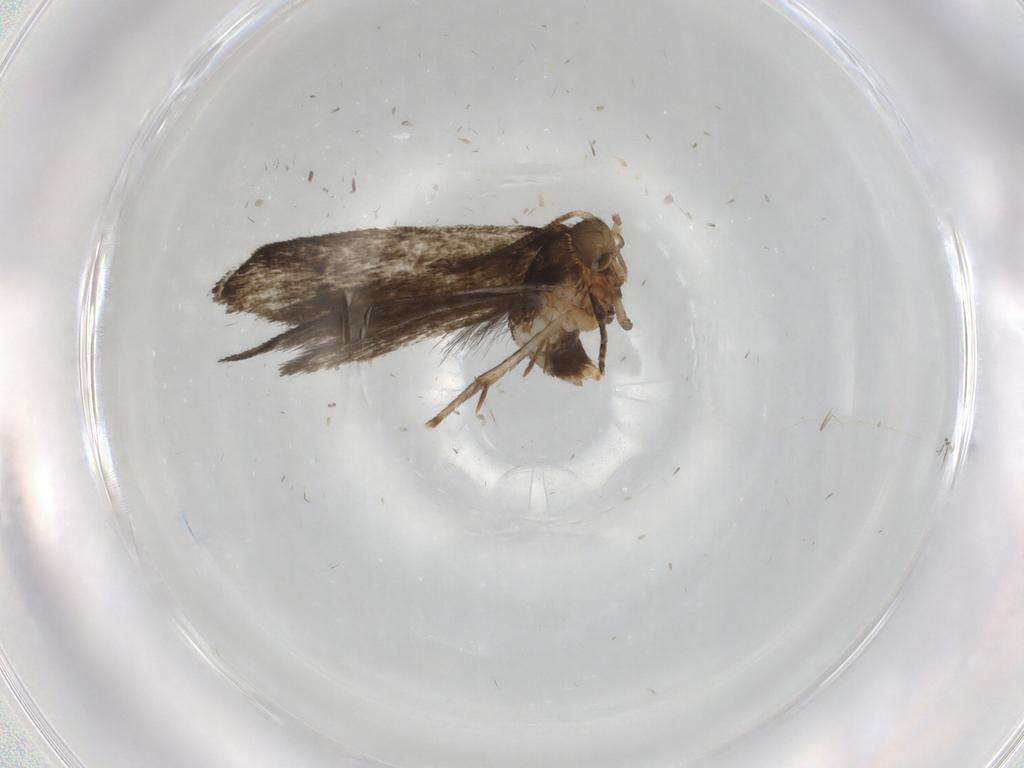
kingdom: Animalia
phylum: Arthropoda
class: Insecta
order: Lepidoptera
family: Tineidae
